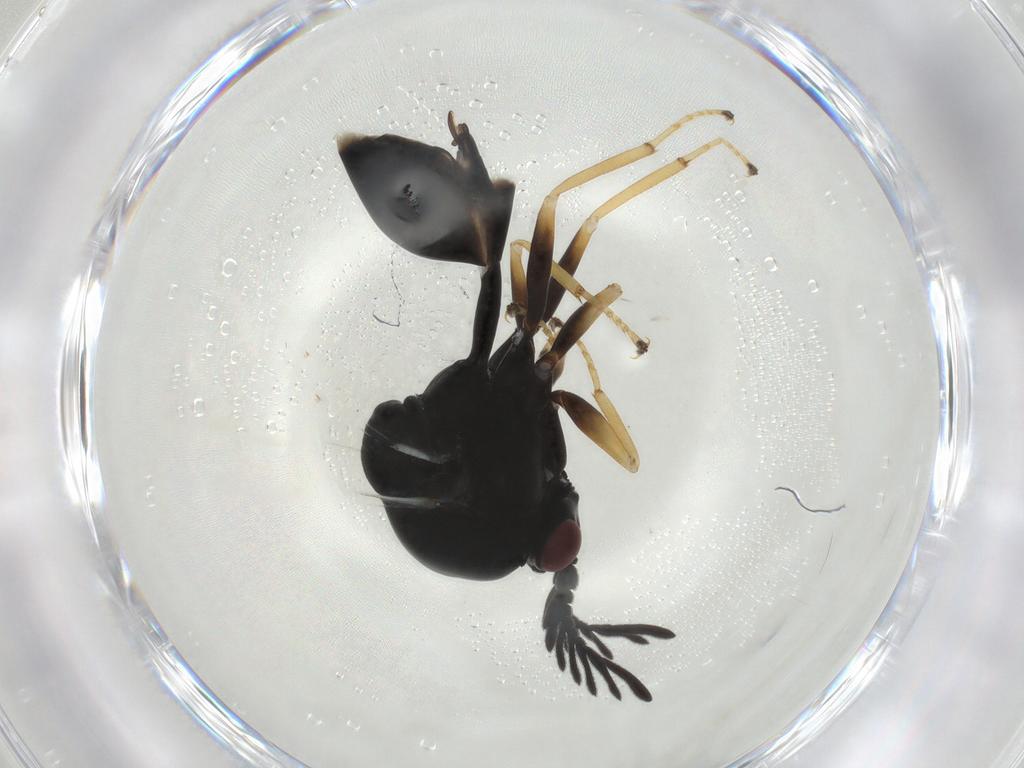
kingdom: Animalia
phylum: Arthropoda
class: Insecta
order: Hymenoptera
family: Eucharitidae
